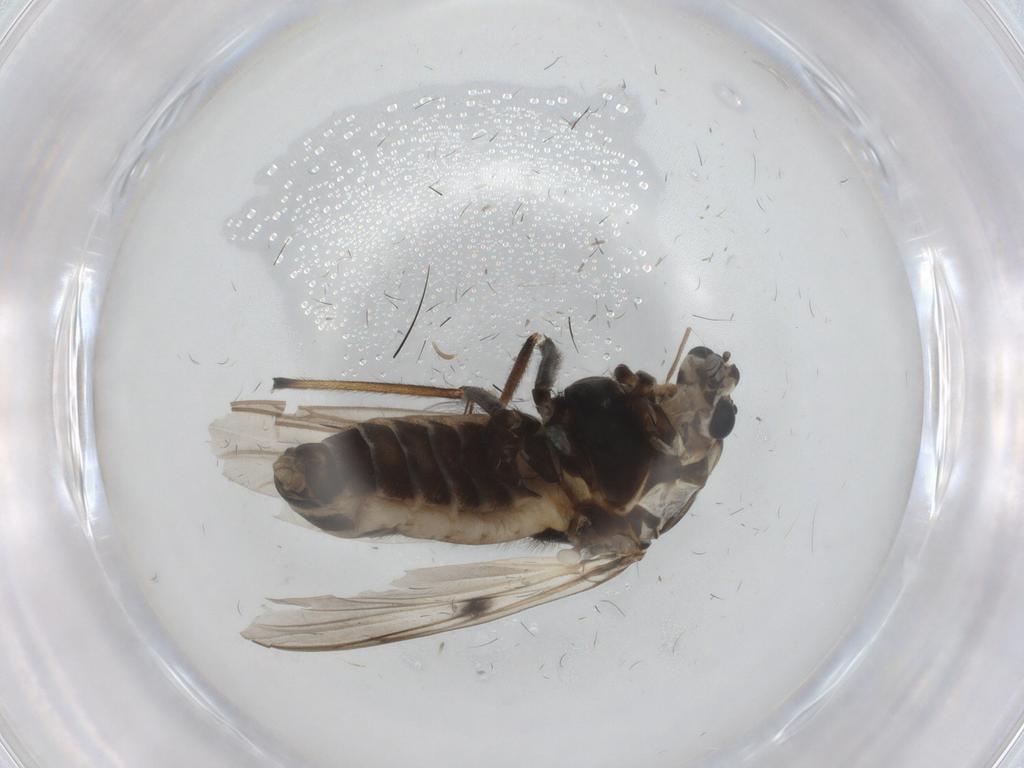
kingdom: Animalia
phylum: Arthropoda
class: Insecta
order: Diptera
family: Chironomidae
